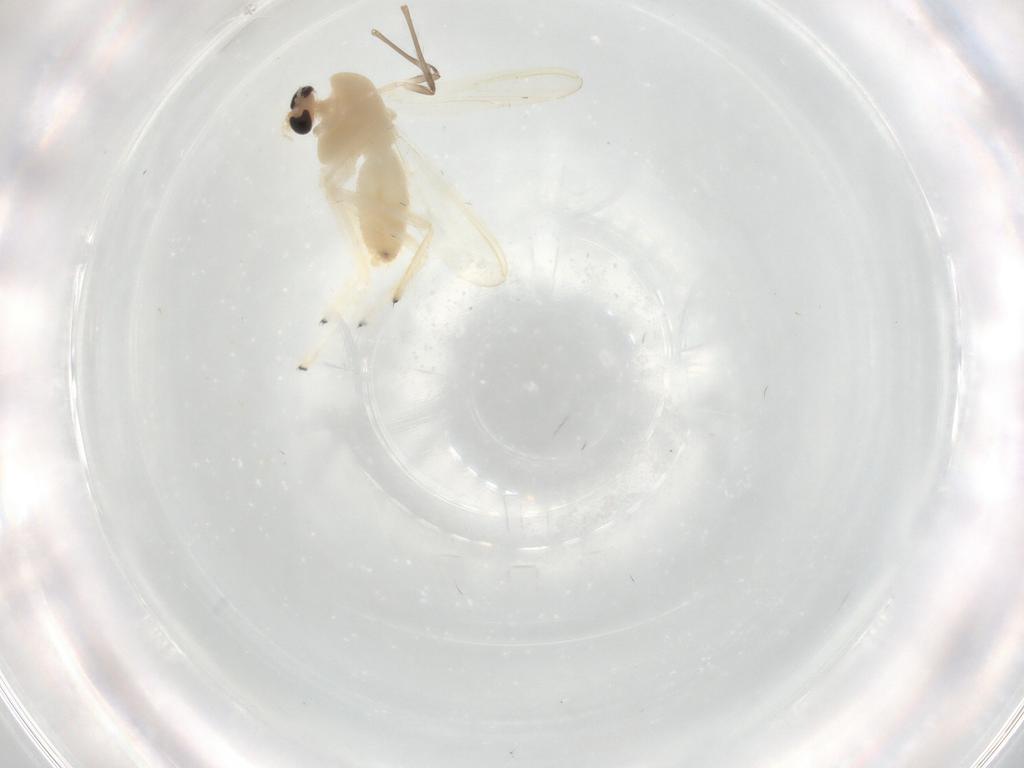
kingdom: Animalia
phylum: Arthropoda
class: Insecta
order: Diptera
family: Chironomidae
